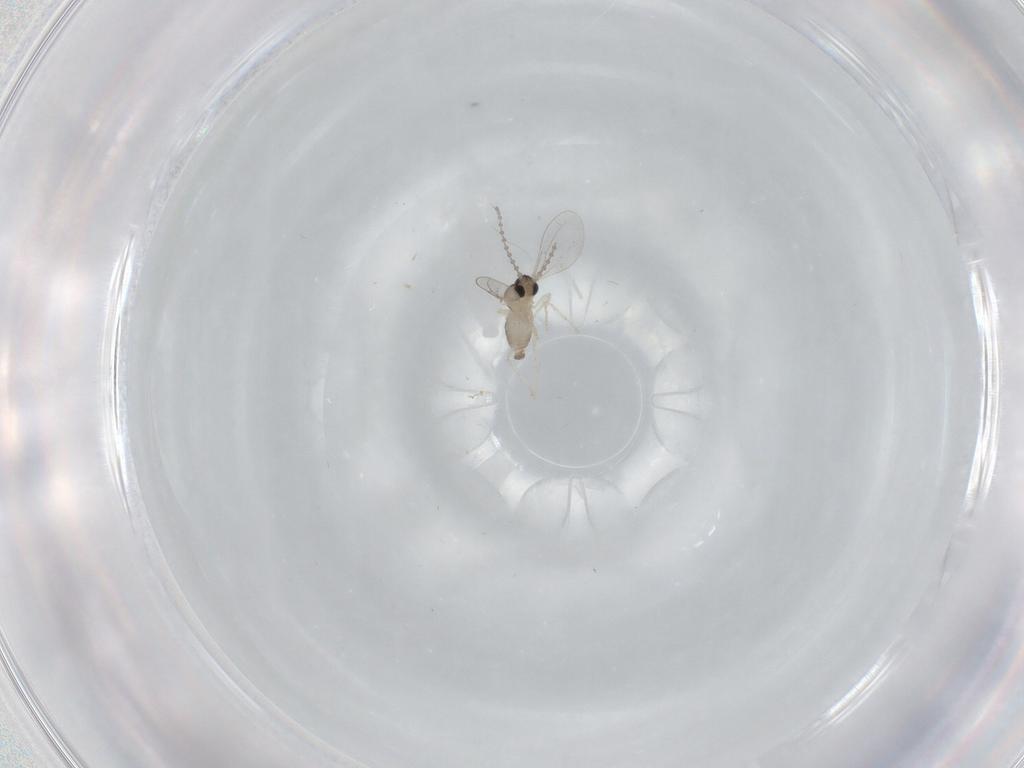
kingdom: Animalia
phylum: Arthropoda
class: Insecta
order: Diptera
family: Cecidomyiidae
